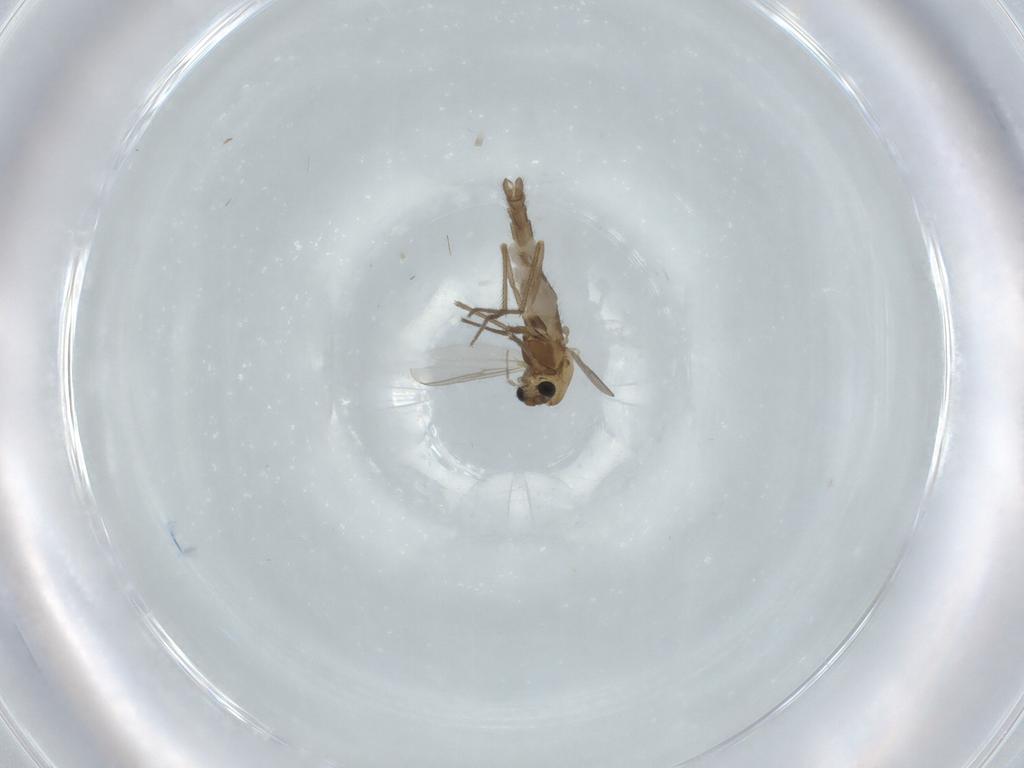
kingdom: Animalia
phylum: Arthropoda
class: Insecta
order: Diptera
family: Chironomidae
